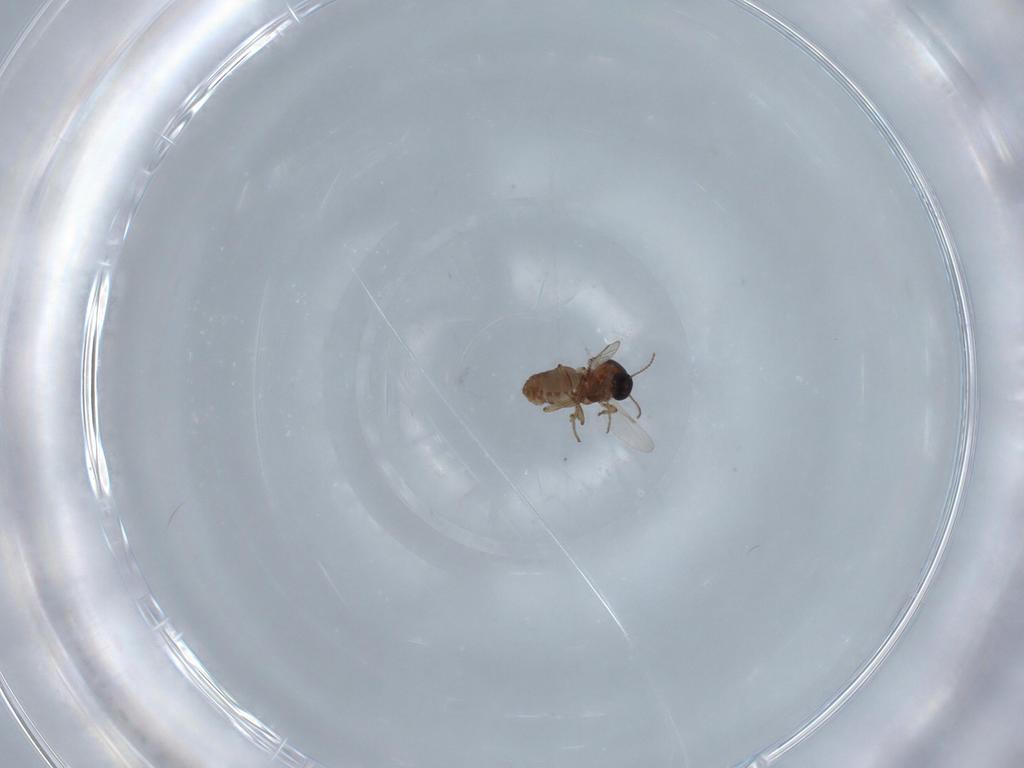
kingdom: Animalia
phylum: Arthropoda
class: Insecta
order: Diptera
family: Ceratopogonidae
